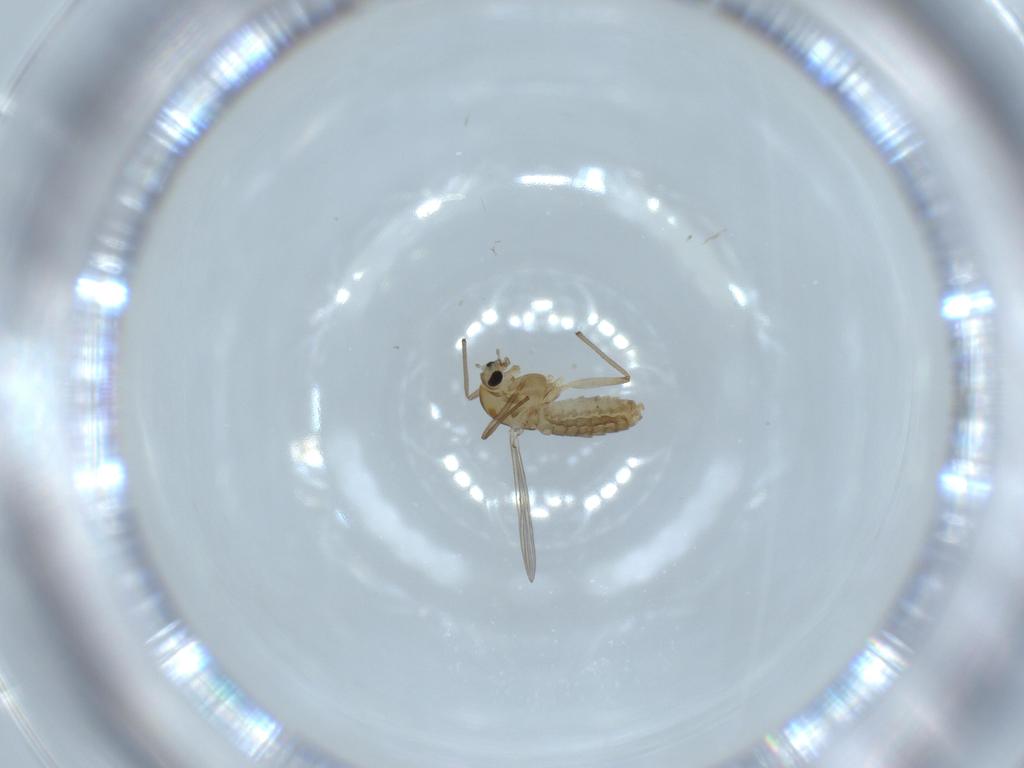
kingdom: Animalia
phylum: Arthropoda
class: Insecta
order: Diptera
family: Chironomidae
